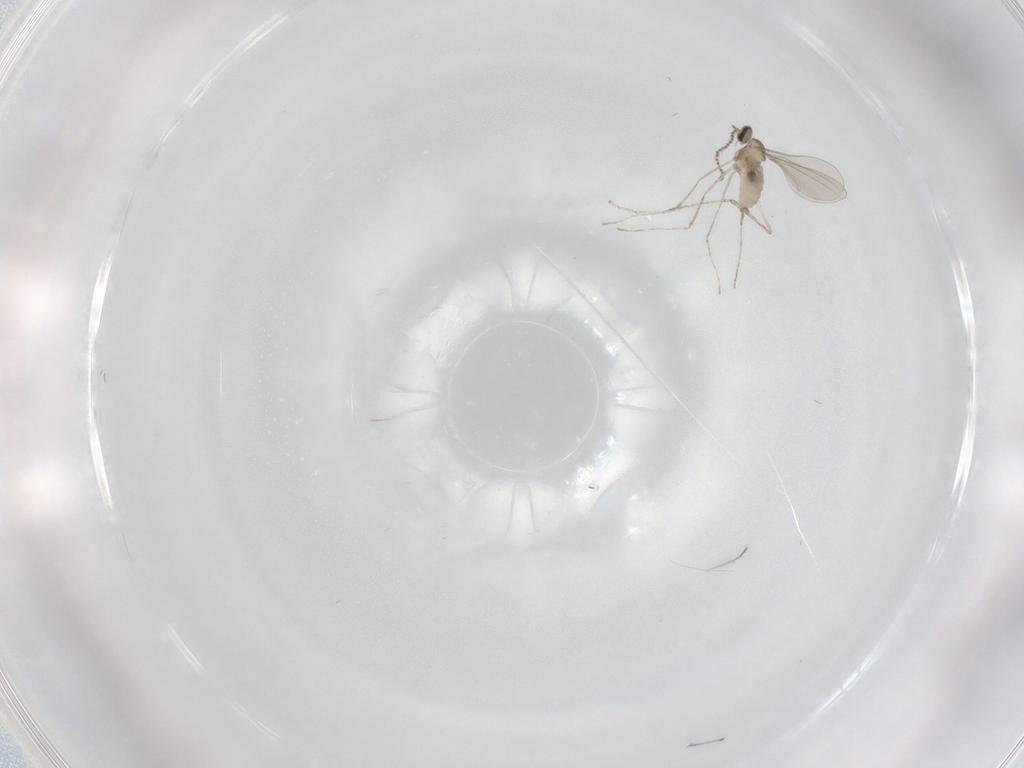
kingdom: Animalia
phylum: Arthropoda
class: Insecta
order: Diptera
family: Cecidomyiidae
